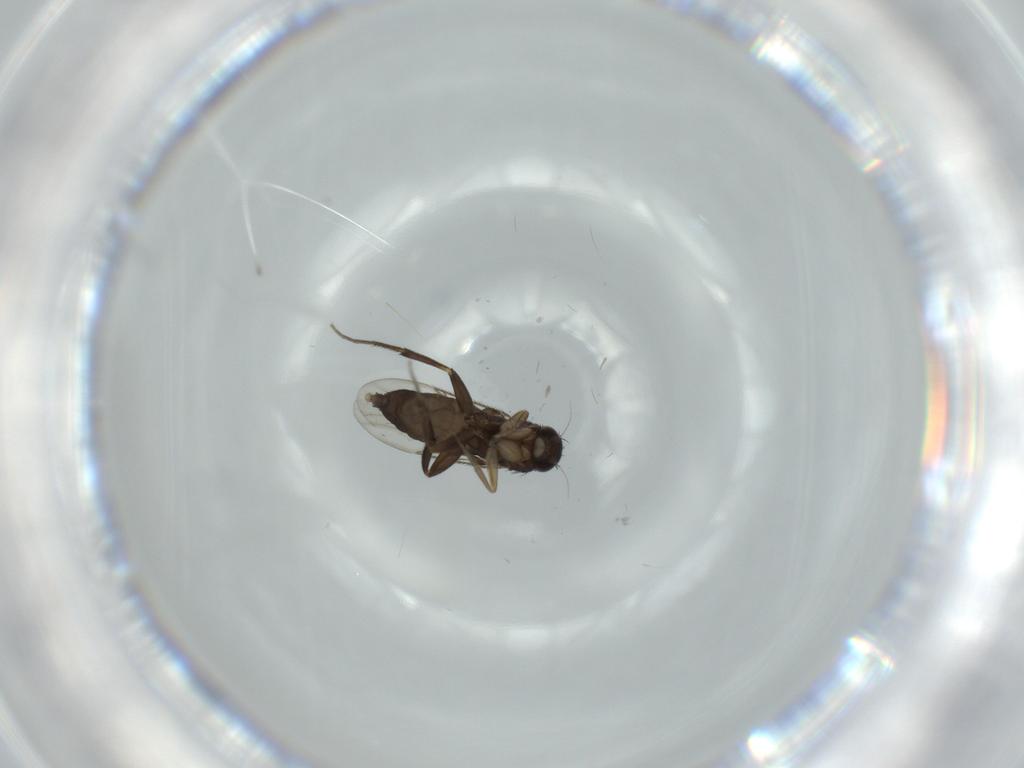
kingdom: Animalia
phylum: Arthropoda
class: Insecta
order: Diptera
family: Phoridae
